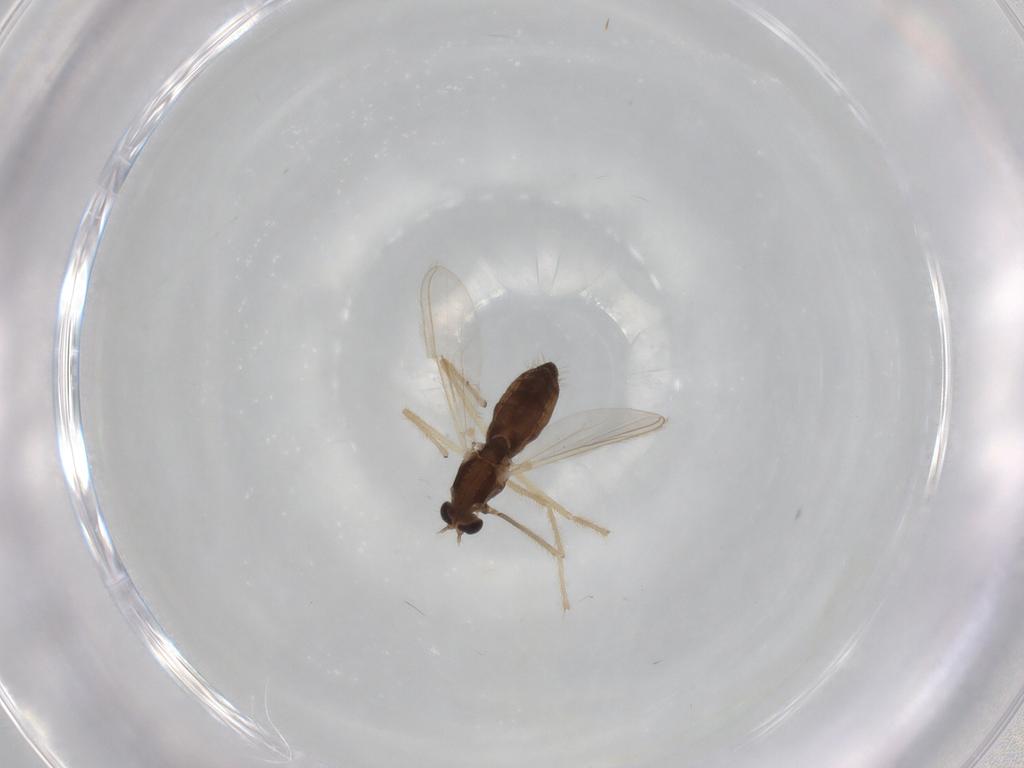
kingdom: Animalia
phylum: Arthropoda
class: Insecta
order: Diptera
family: Chironomidae
